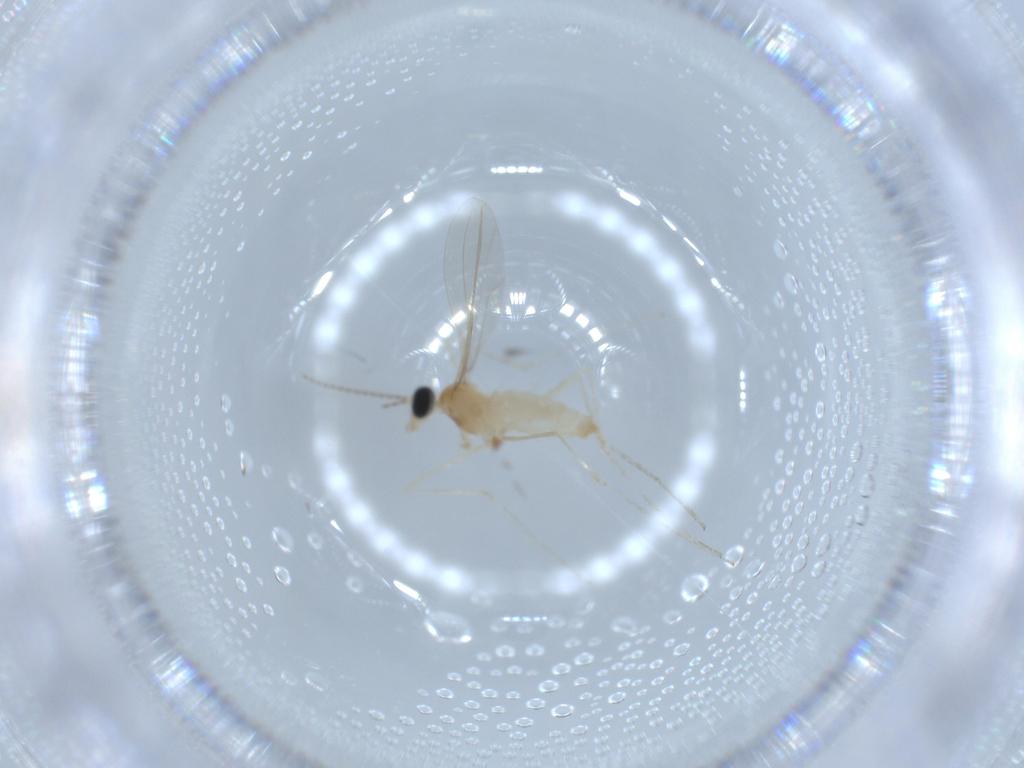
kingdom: Animalia
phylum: Arthropoda
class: Insecta
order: Diptera
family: Cecidomyiidae
